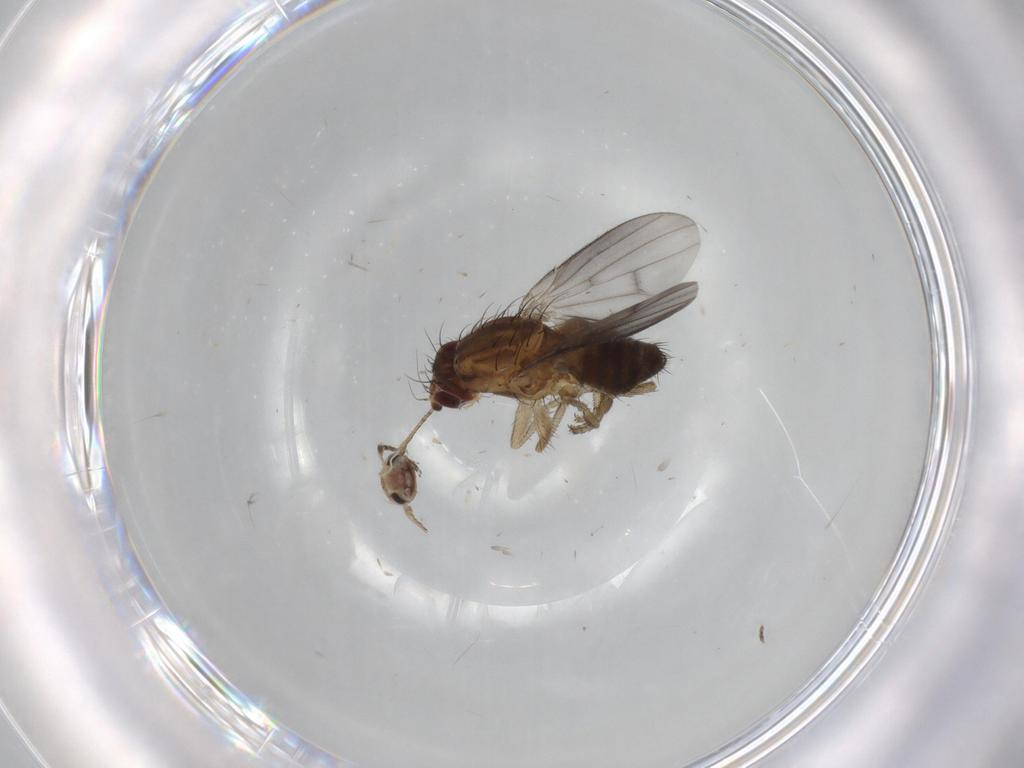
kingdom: Animalia
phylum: Arthropoda
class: Insecta
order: Diptera
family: Heleomyzidae
